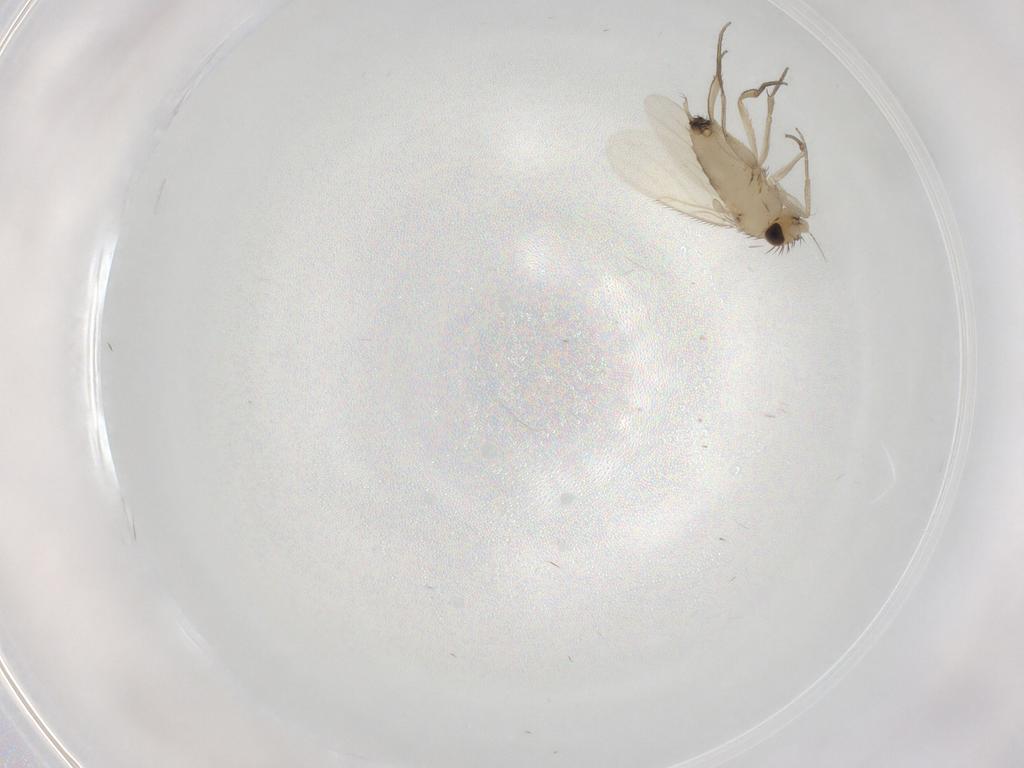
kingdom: Animalia
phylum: Arthropoda
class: Insecta
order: Diptera
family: Phoridae
